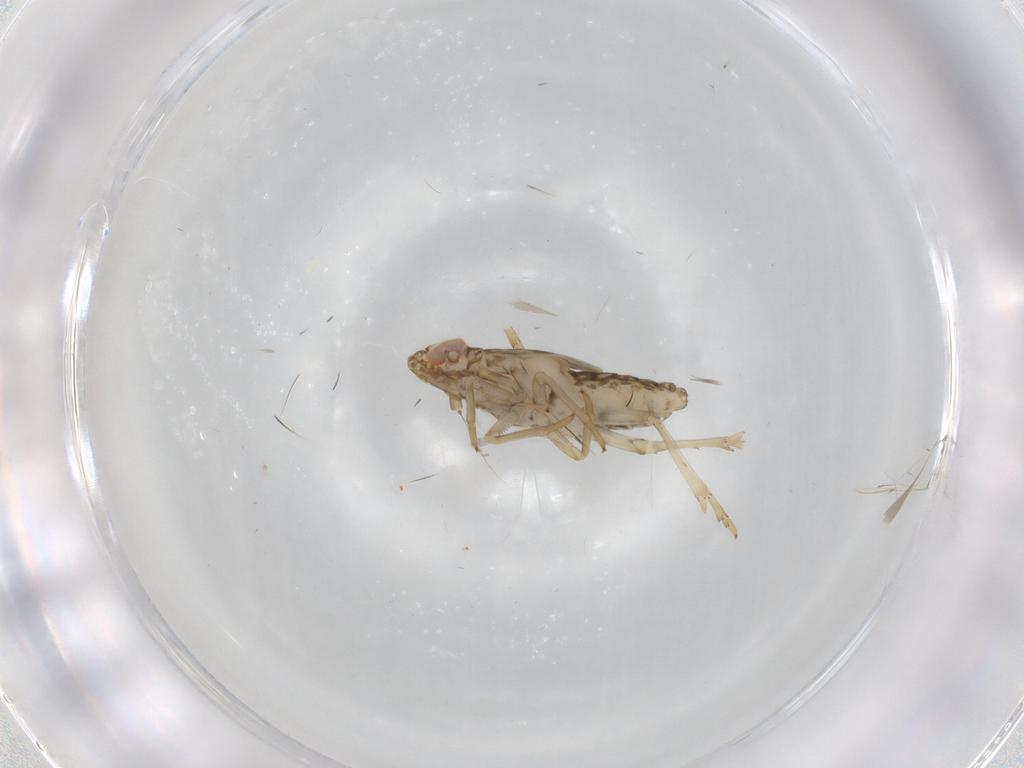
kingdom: Animalia
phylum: Arthropoda
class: Insecta
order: Hemiptera
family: Delphacidae
